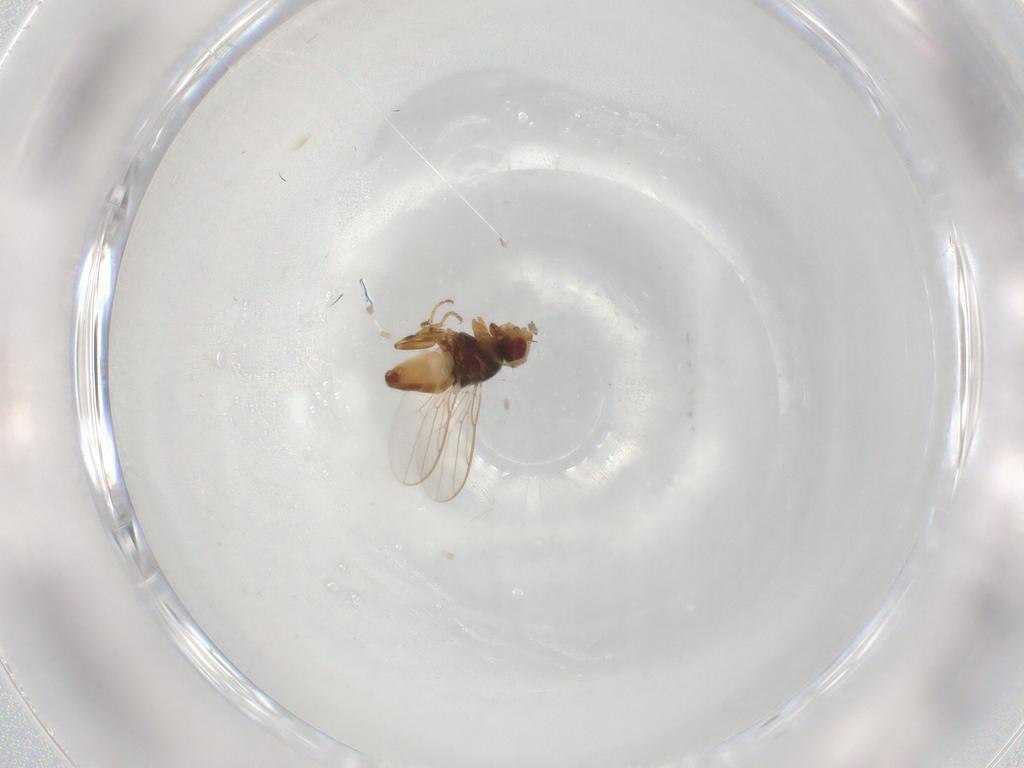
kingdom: Animalia
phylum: Arthropoda
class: Insecta
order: Diptera
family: Chloropidae
